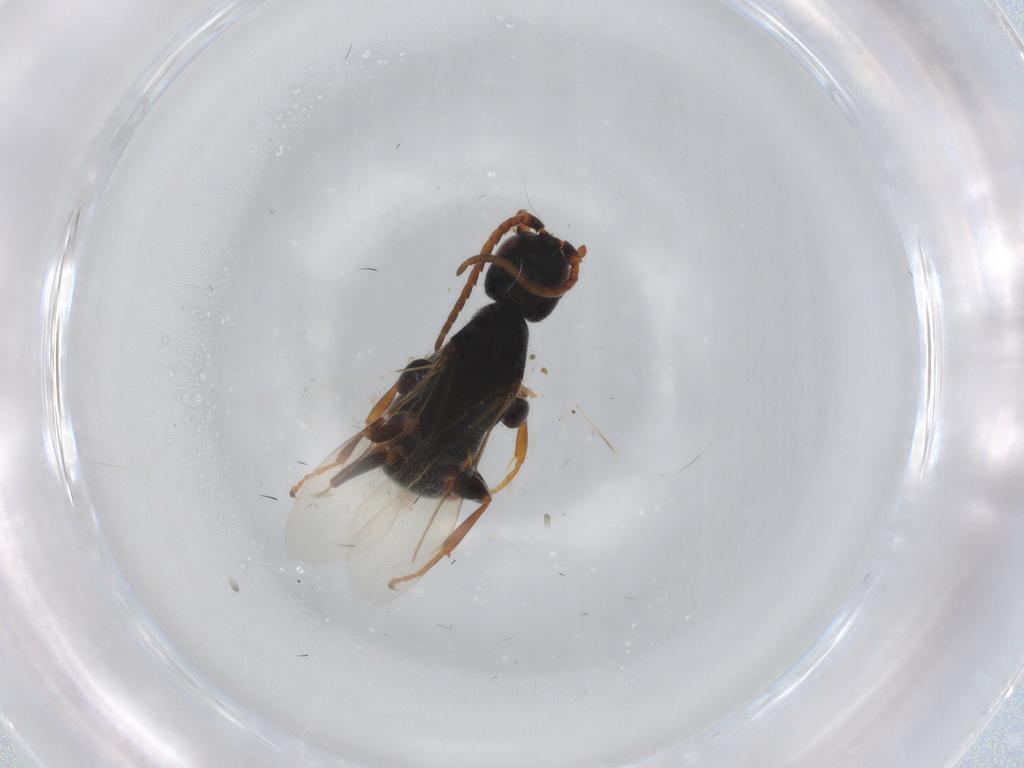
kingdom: Animalia
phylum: Arthropoda
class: Insecta
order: Hymenoptera
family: Bethylidae
